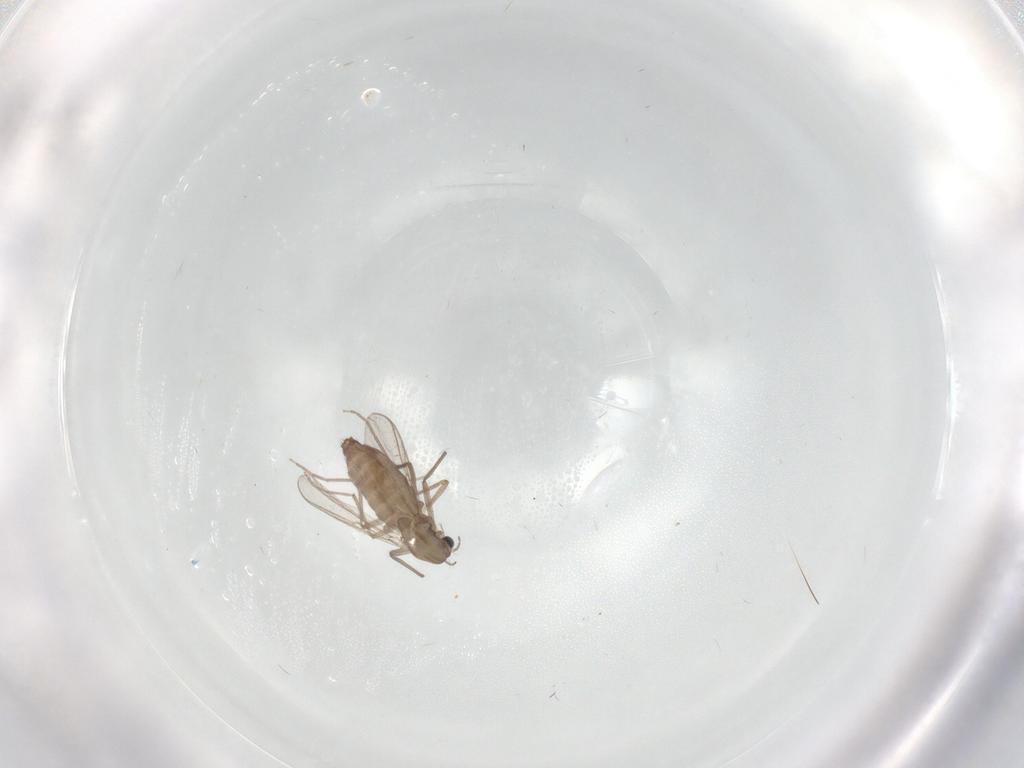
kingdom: Animalia
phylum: Arthropoda
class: Insecta
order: Diptera
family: Chironomidae
